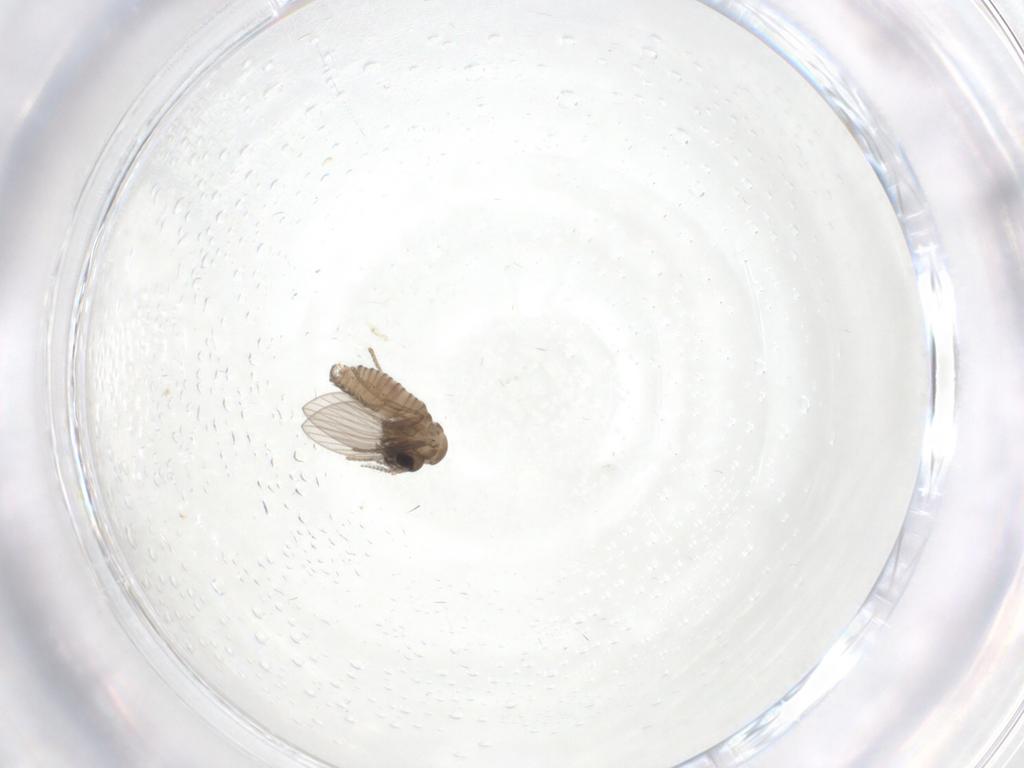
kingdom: Animalia
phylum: Arthropoda
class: Insecta
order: Diptera
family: Psychodidae
